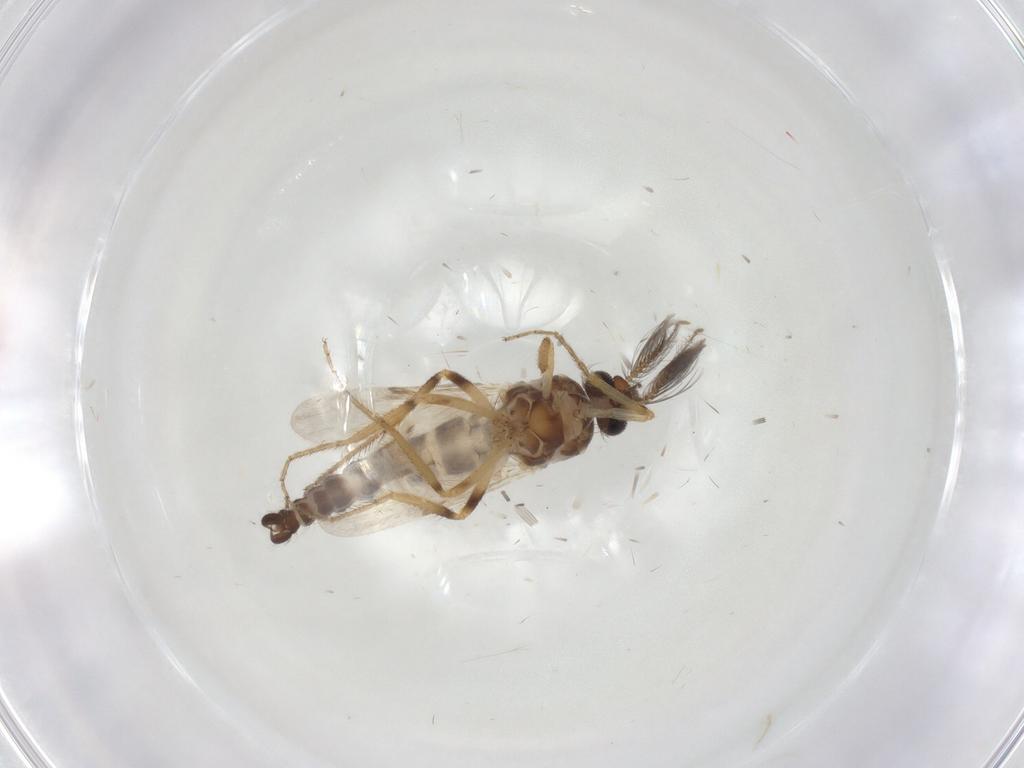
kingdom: Animalia
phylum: Arthropoda
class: Insecta
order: Diptera
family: Ceratopogonidae
